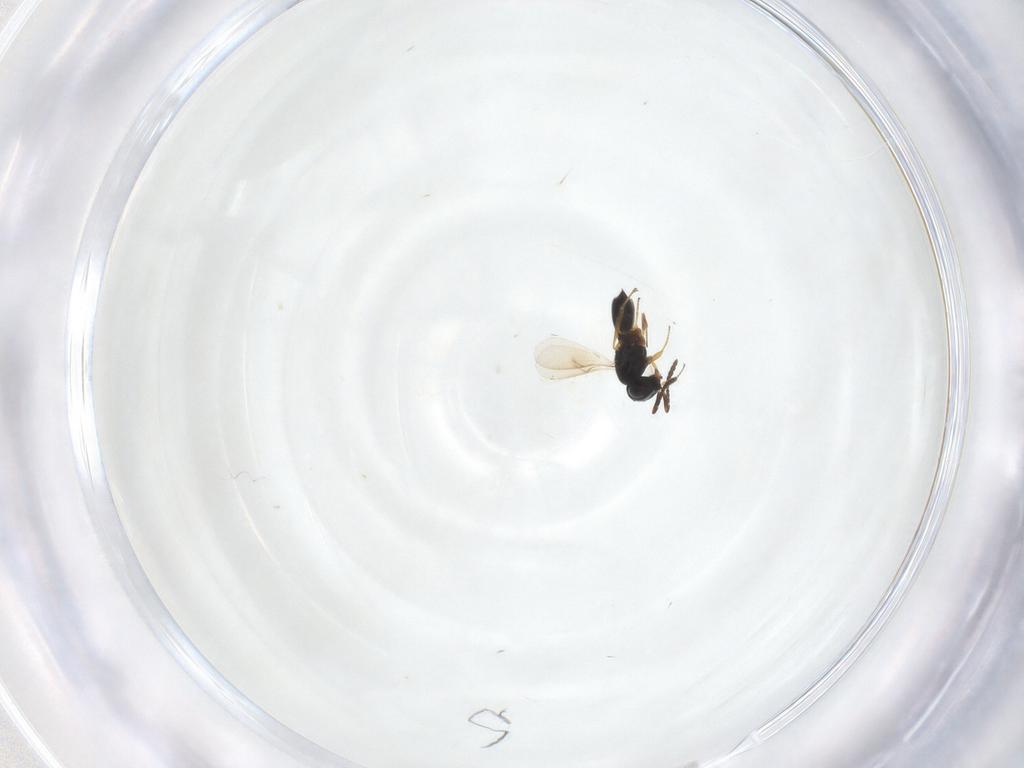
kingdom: Animalia
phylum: Arthropoda
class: Insecta
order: Hymenoptera
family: Scelionidae
